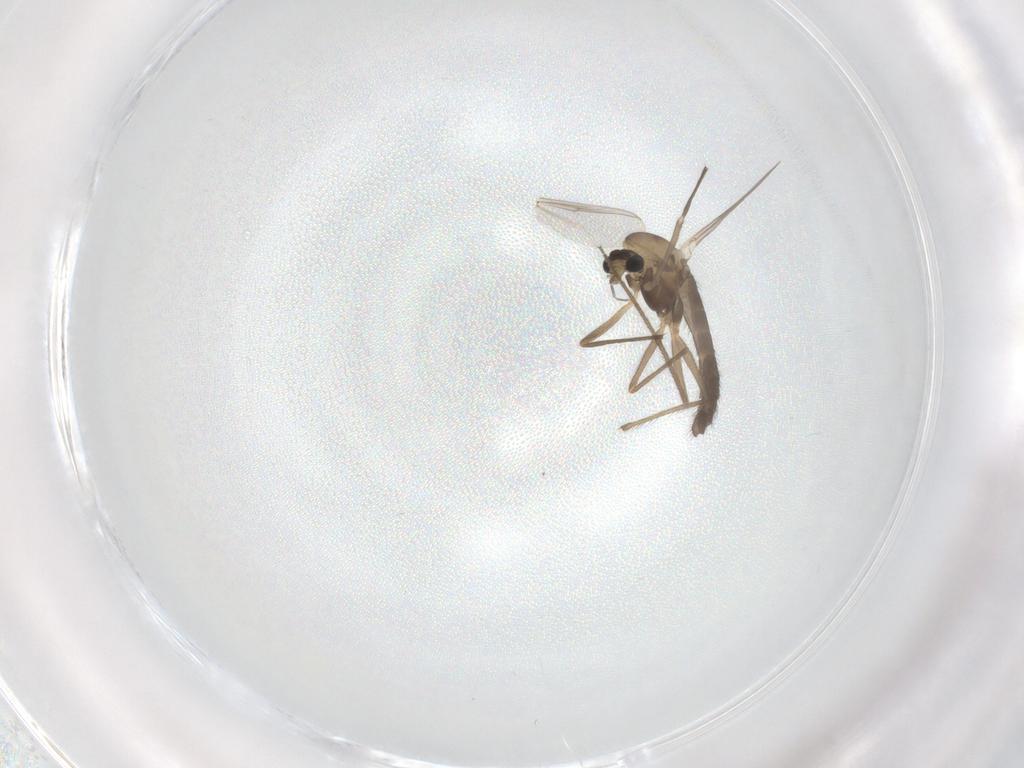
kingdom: Animalia
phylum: Arthropoda
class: Insecta
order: Diptera
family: Chironomidae
